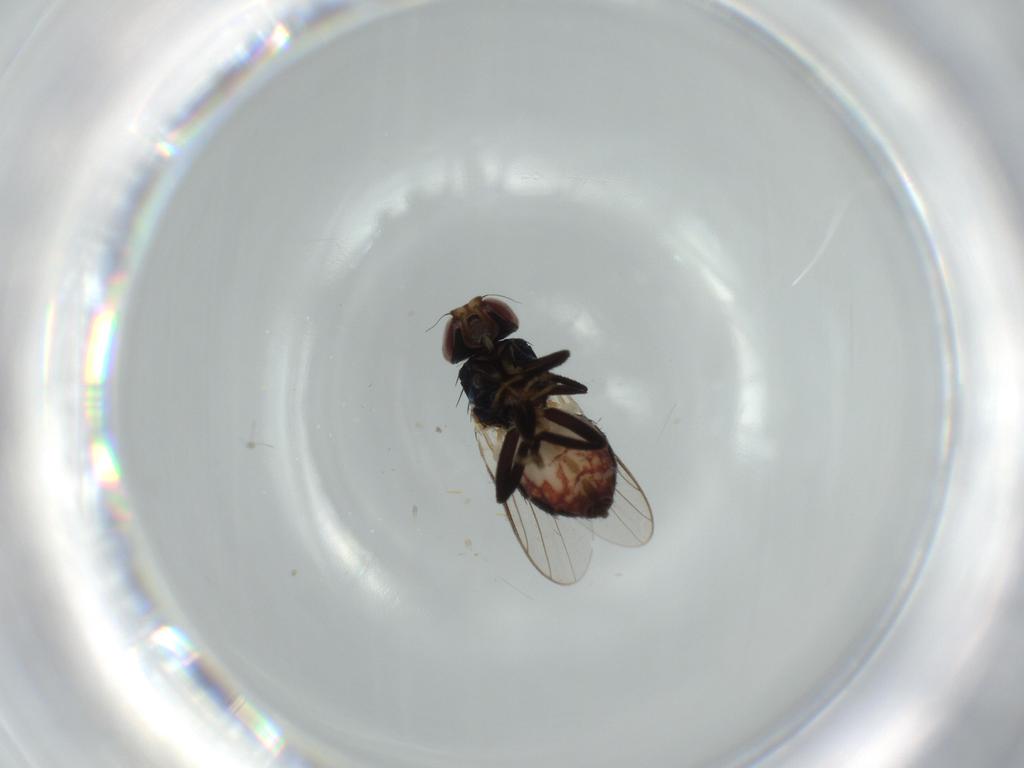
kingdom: Animalia
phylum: Arthropoda
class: Insecta
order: Diptera
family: Chloropidae
